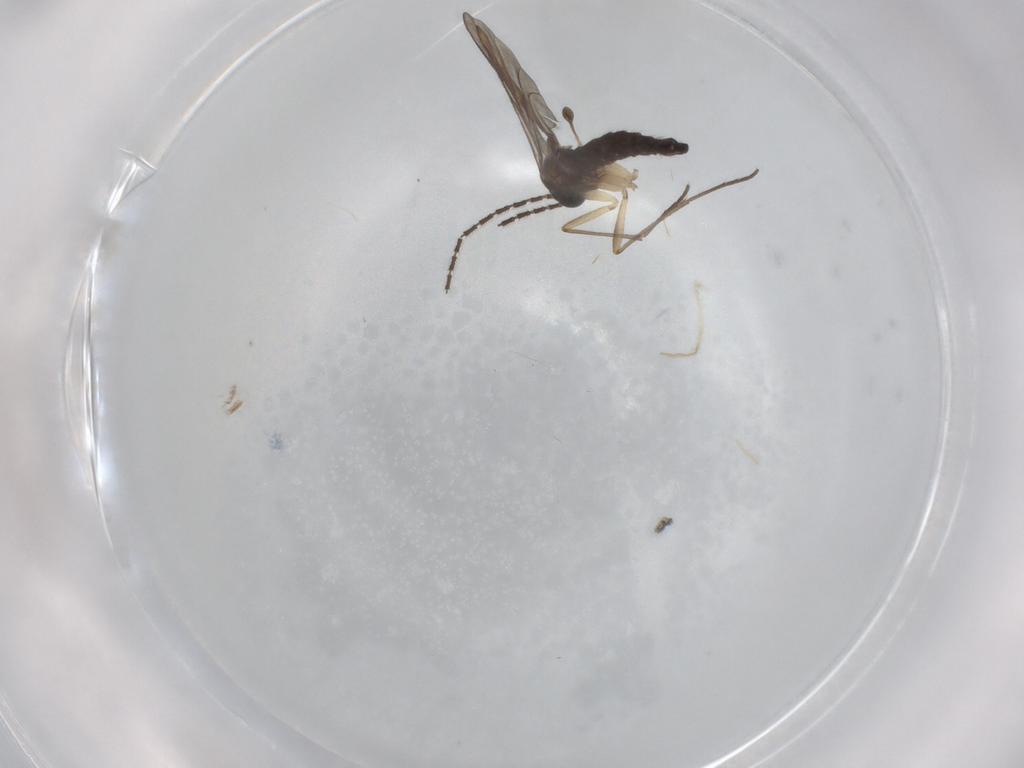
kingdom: Animalia
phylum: Arthropoda
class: Insecta
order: Diptera
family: Sciaridae
